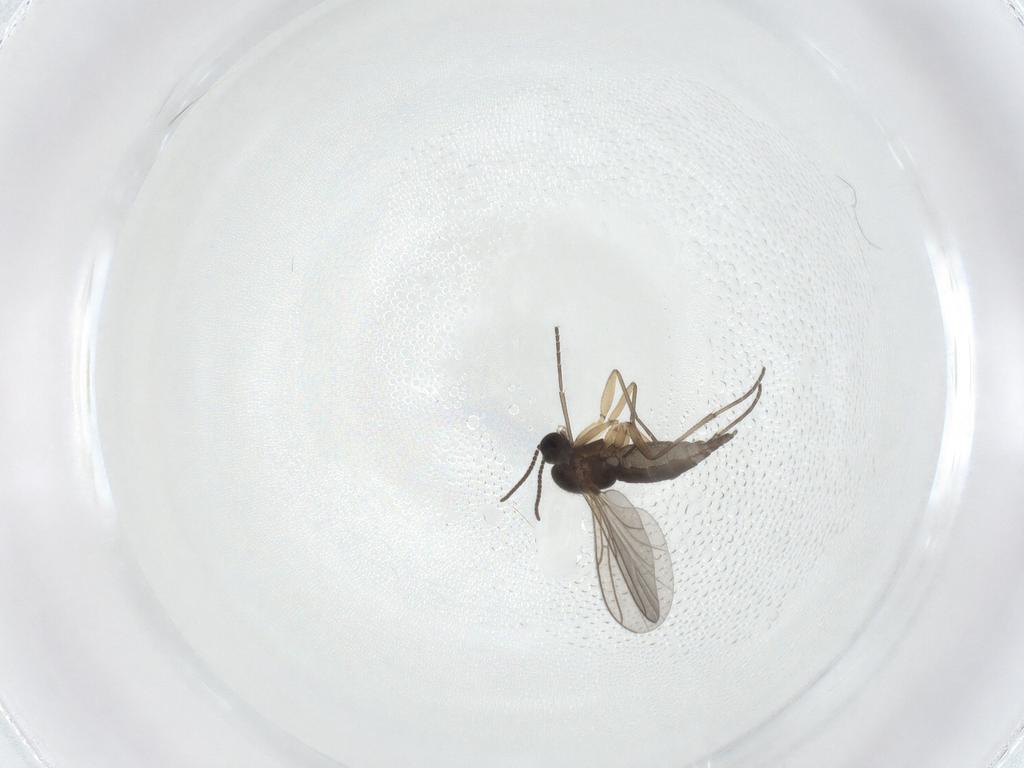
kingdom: Animalia
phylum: Arthropoda
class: Insecta
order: Diptera
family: Sciaridae
